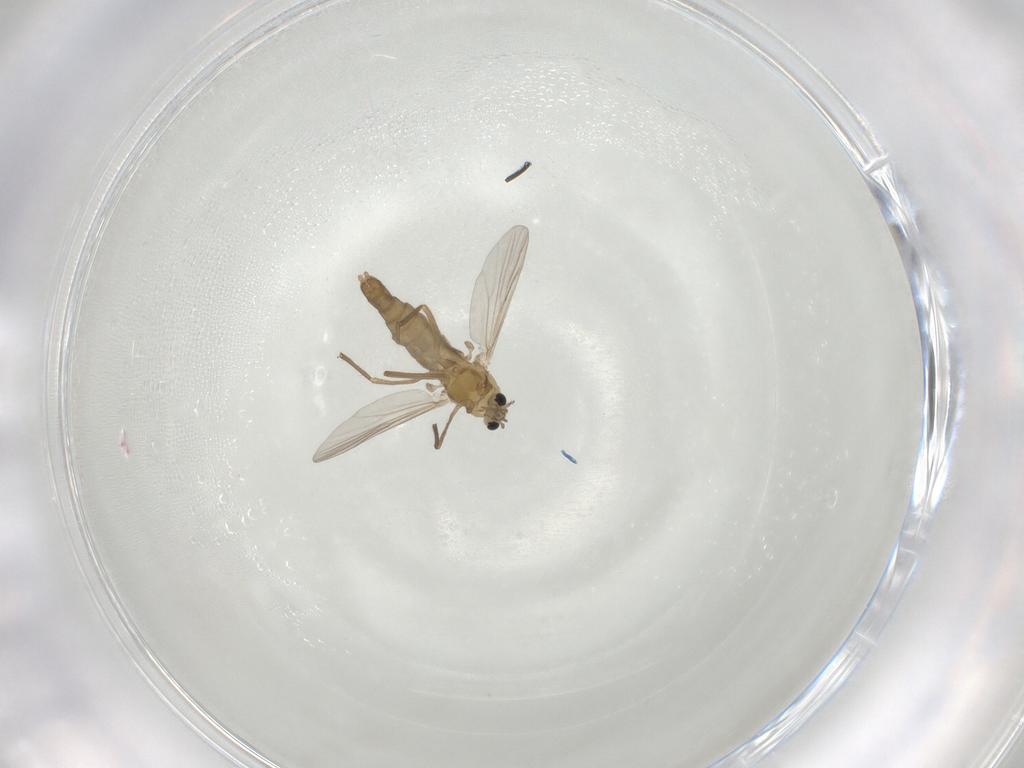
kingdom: Animalia
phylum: Arthropoda
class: Insecta
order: Diptera
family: Chironomidae
